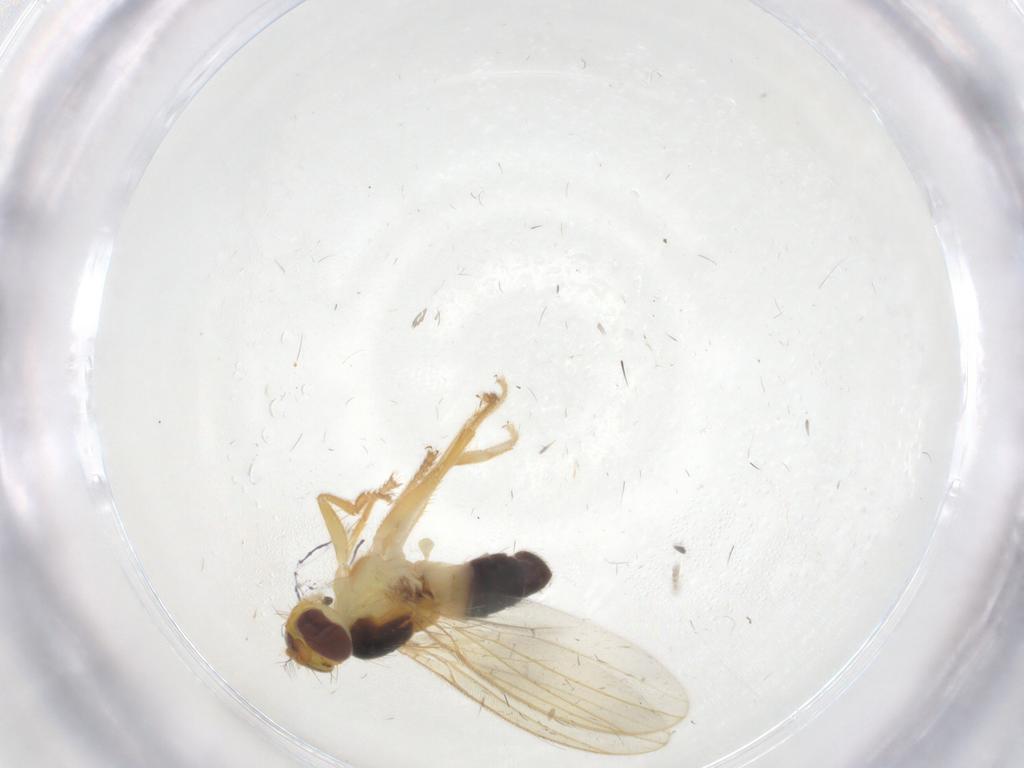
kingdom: Animalia
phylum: Arthropoda
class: Insecta
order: Diptera
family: Periscelididae
